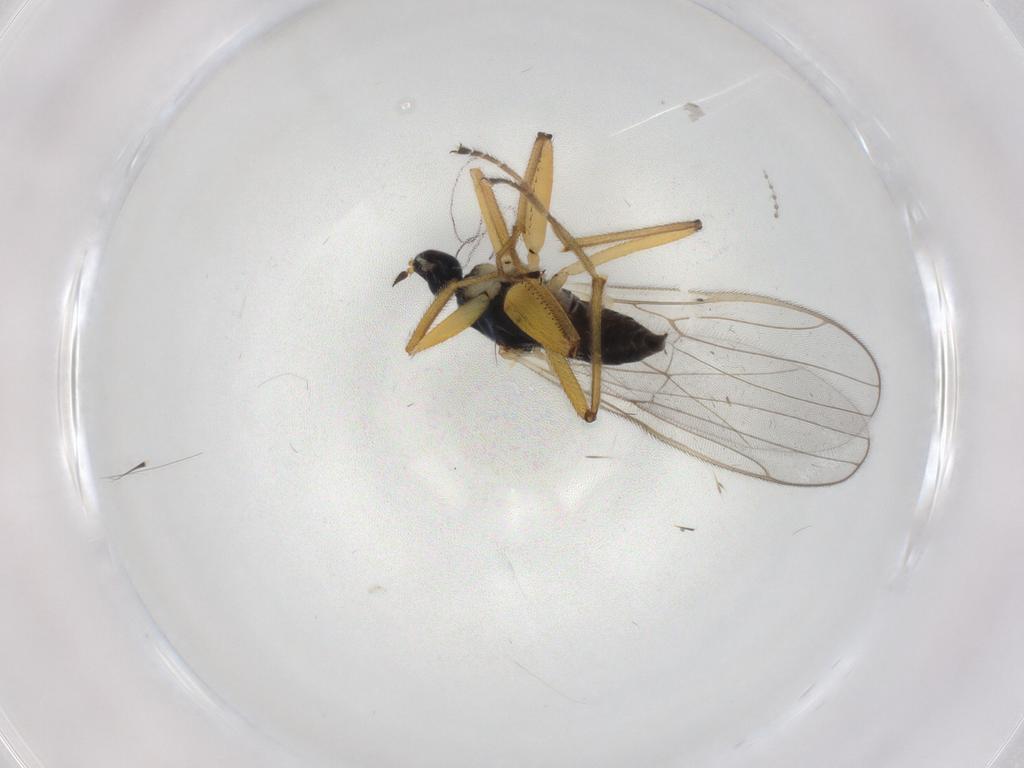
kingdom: Animalia
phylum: Arthropoda
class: Insecta
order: Diptera
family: Hybotidae
